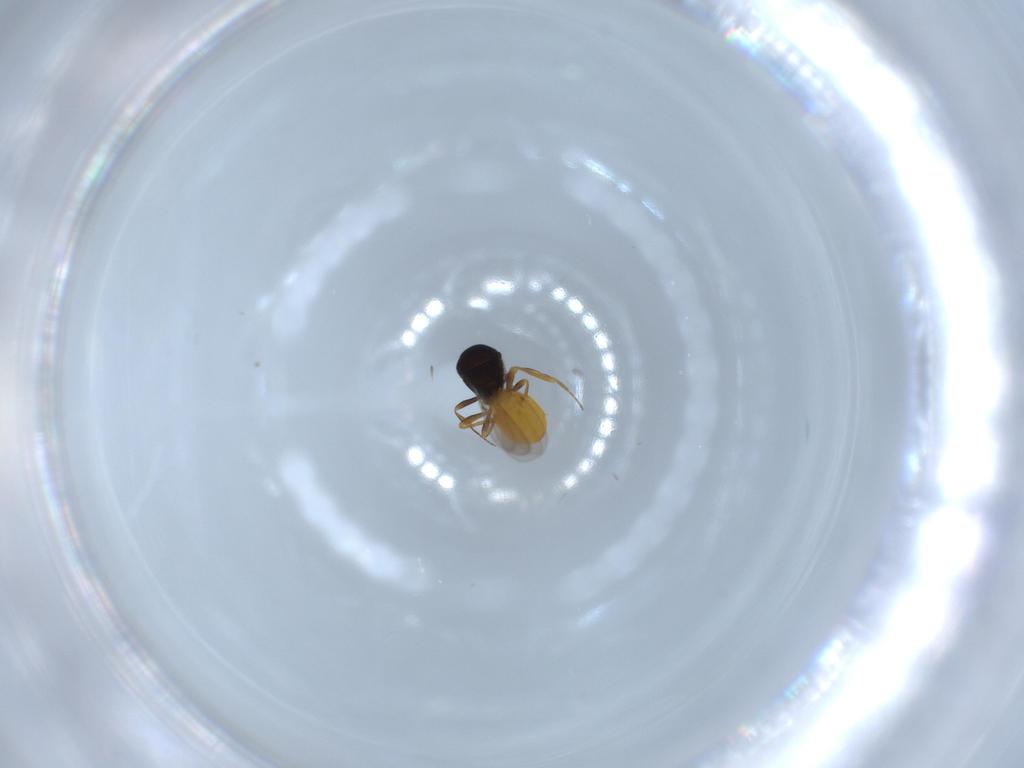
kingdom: Animalia
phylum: Arthropoda
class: Insecta
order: Hymenoptera
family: Scelionidae
